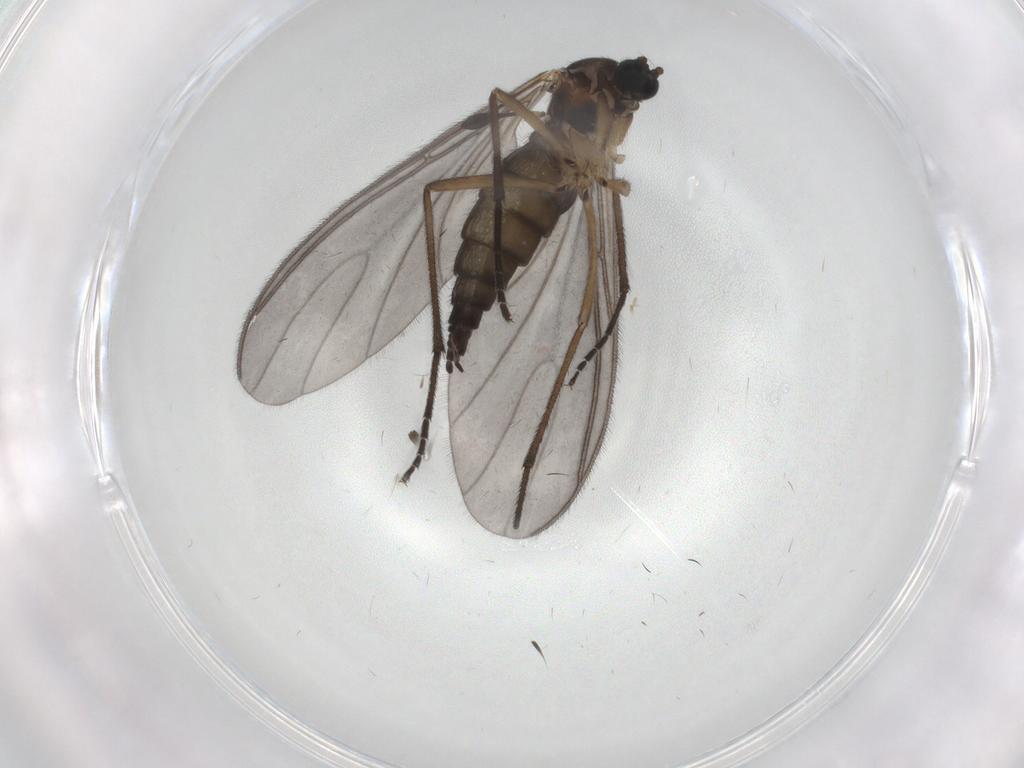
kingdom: Animalia
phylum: Arthropoda
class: Insecta
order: Diptera
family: Sciaridae
